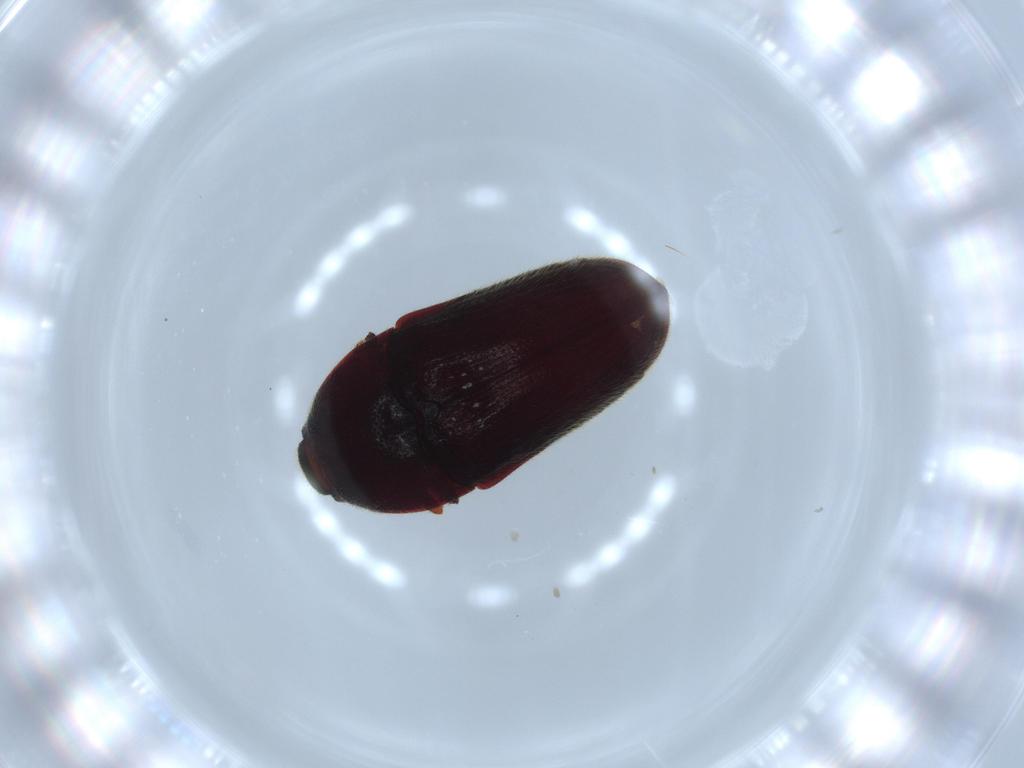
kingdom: Animalia
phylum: Arthropoda
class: Insecta
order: Coleoptera
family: Throscidae
